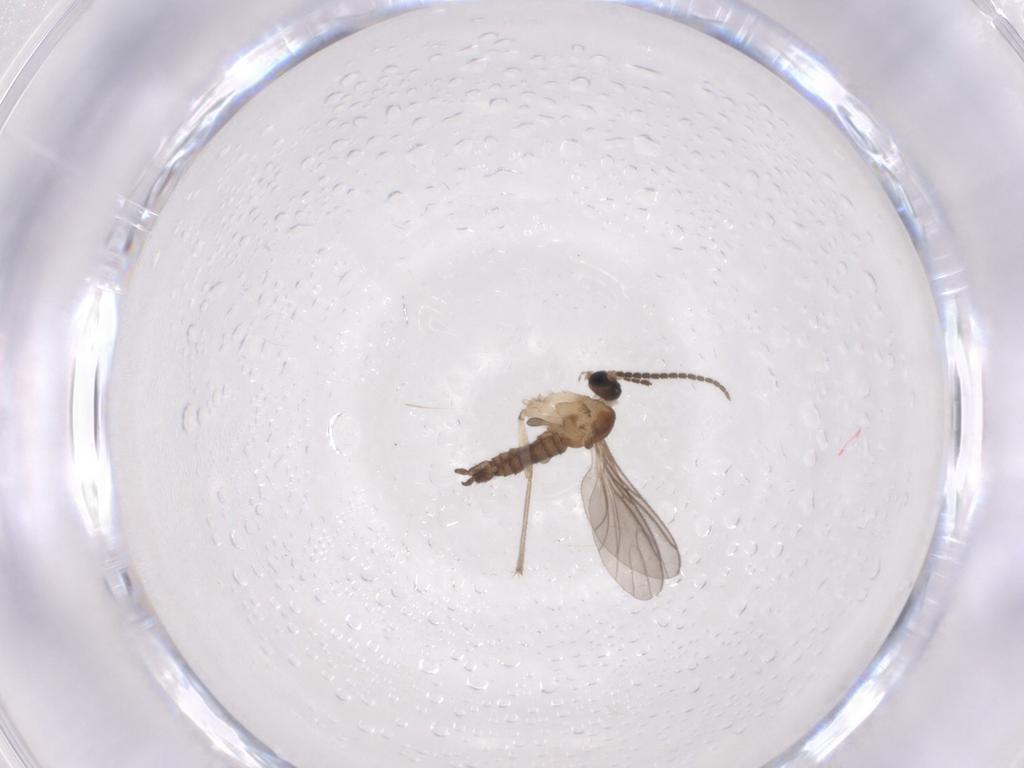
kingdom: Animalia
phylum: Arthropoda
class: Insecta
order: Diptera
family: Sciaridae
